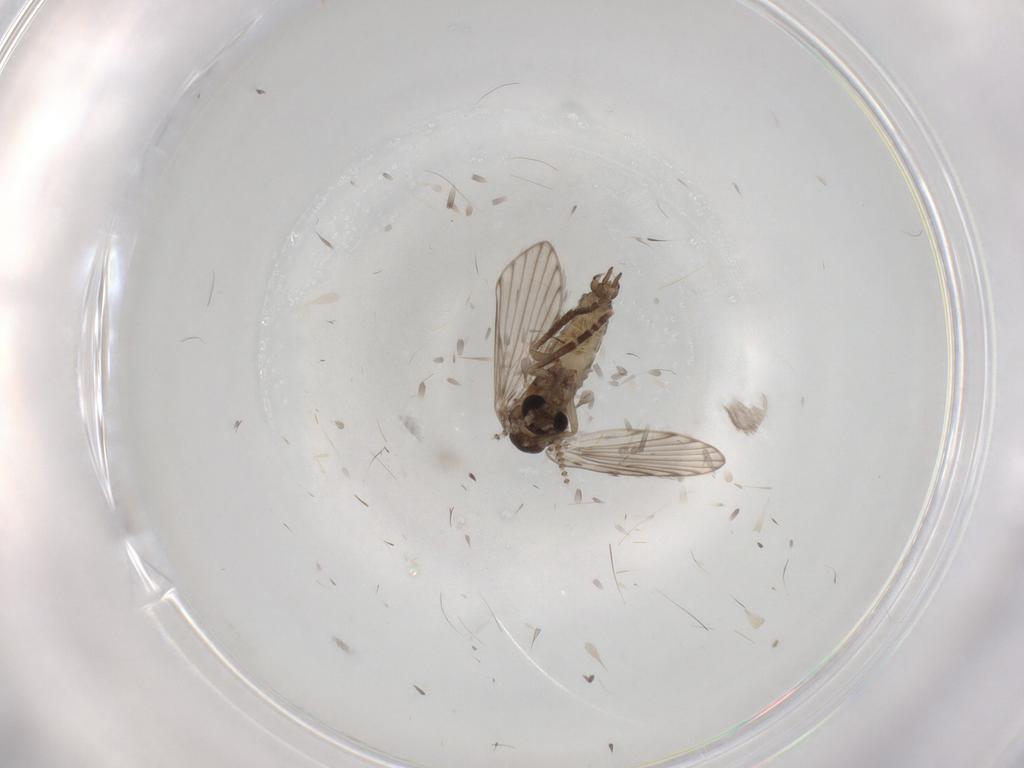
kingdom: Animalia
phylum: Arthropoda
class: Insecta
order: Diptera
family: Psychodidae
